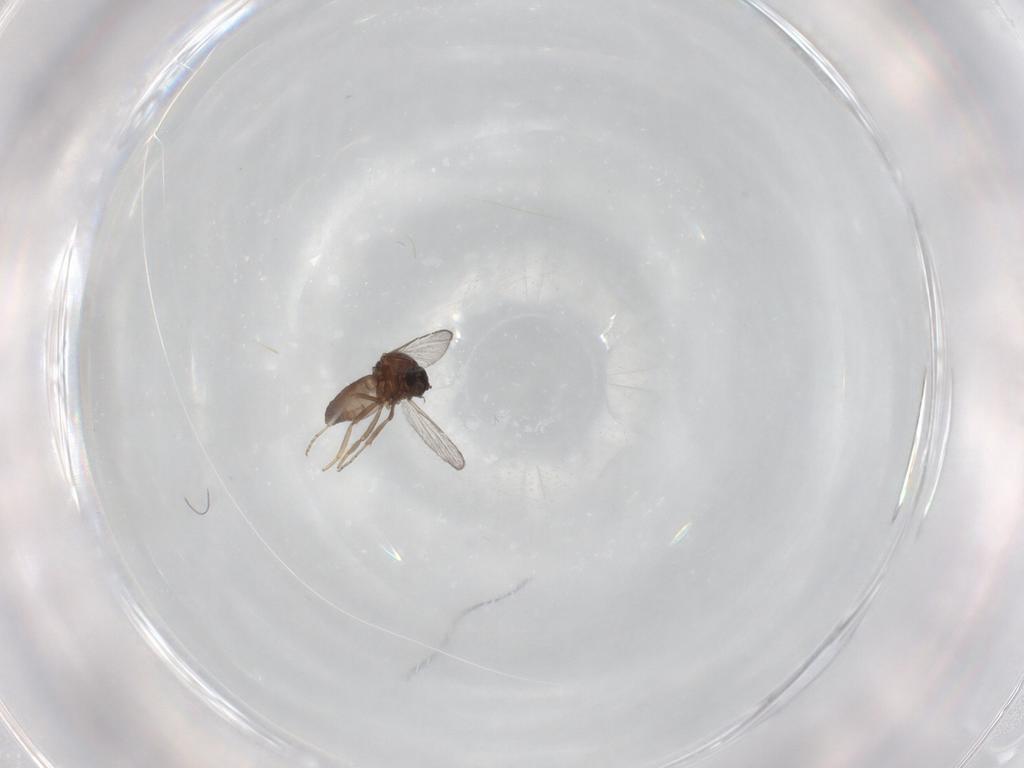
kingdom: Animalia
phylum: Arthropoda
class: Insecta
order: Diptera
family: Ceratopogonidae
